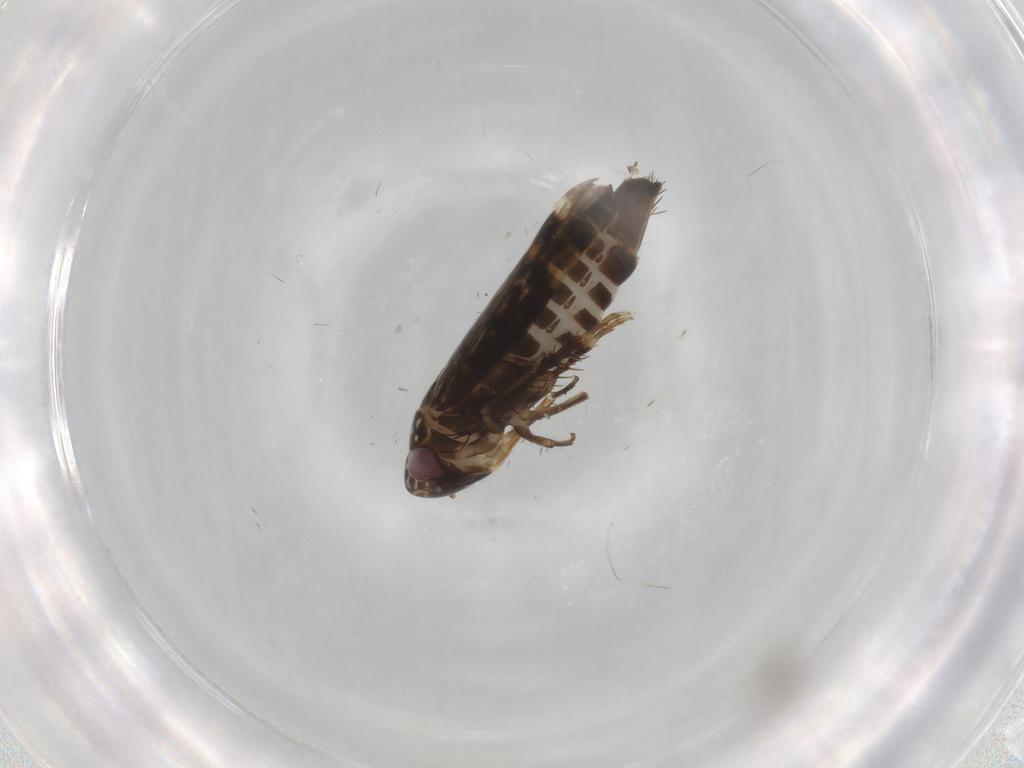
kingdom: Animalia
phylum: Arthropoda
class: Insecta
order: Hemiptera
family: Cicadellidae
